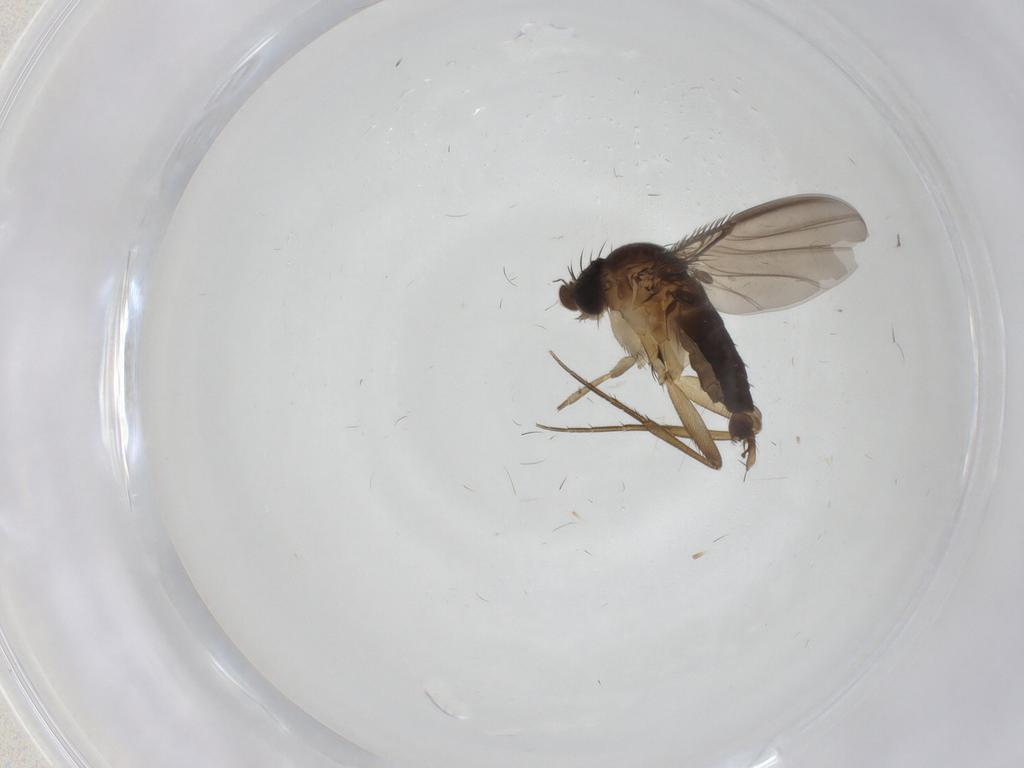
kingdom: Animalia
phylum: Arthropoda
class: Insecta
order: Diptera
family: Phoridae
